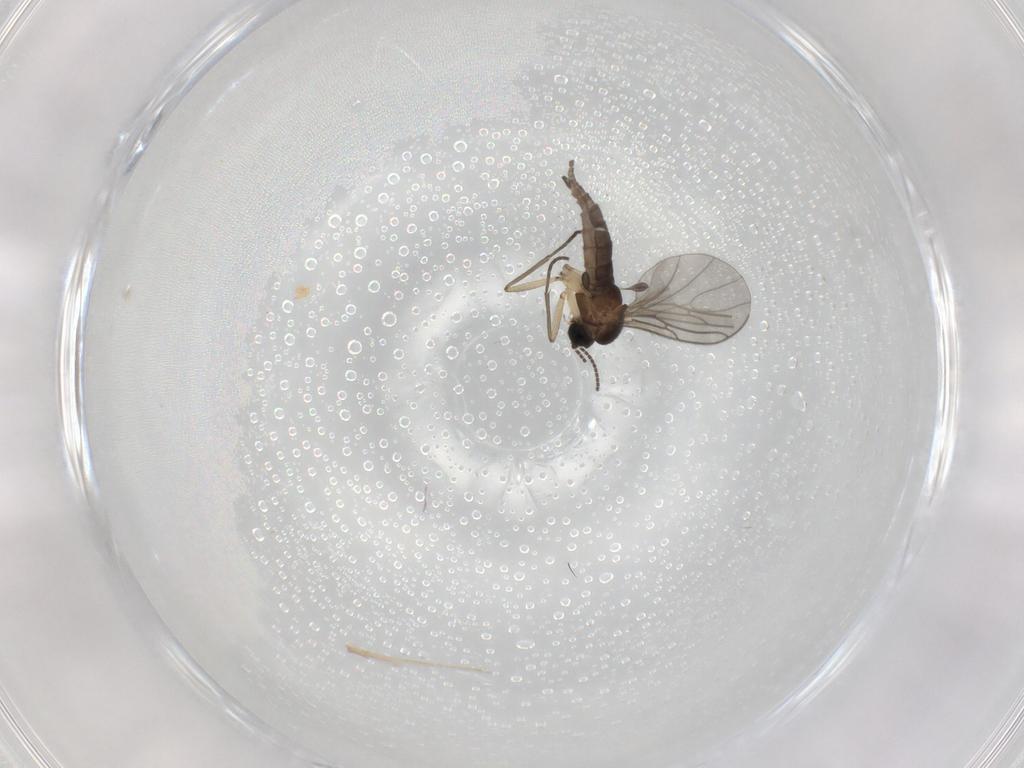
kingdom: Animalia
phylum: Arthropoda
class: Insecta
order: Diptera
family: Sciaridae
